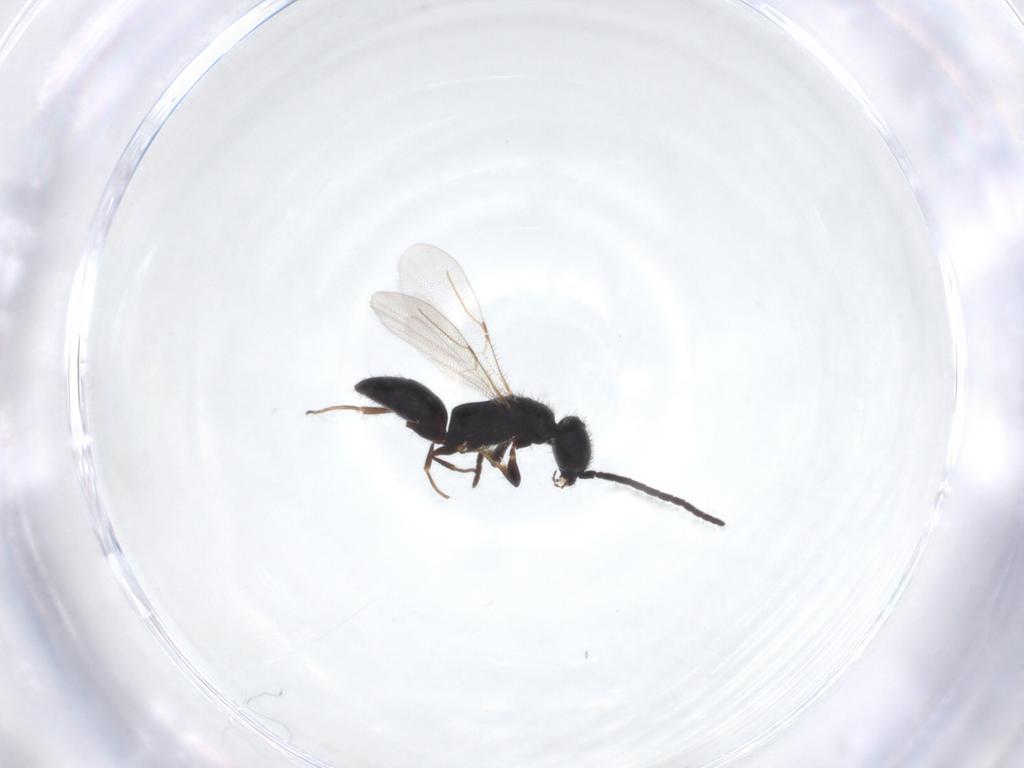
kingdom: Animalia
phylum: Arthropoda
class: Insecta
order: Hymenoptera
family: Bethylidae
